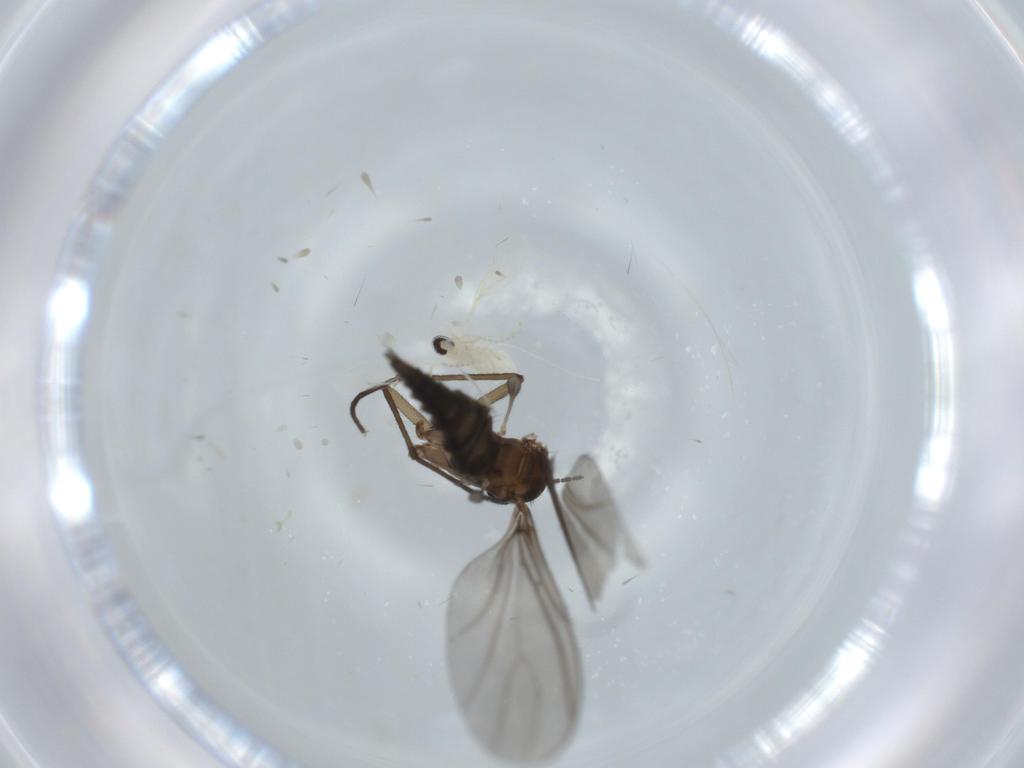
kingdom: Animalia
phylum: Arthropoda
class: Insecta
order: Diptera
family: Cecidomyiidae
